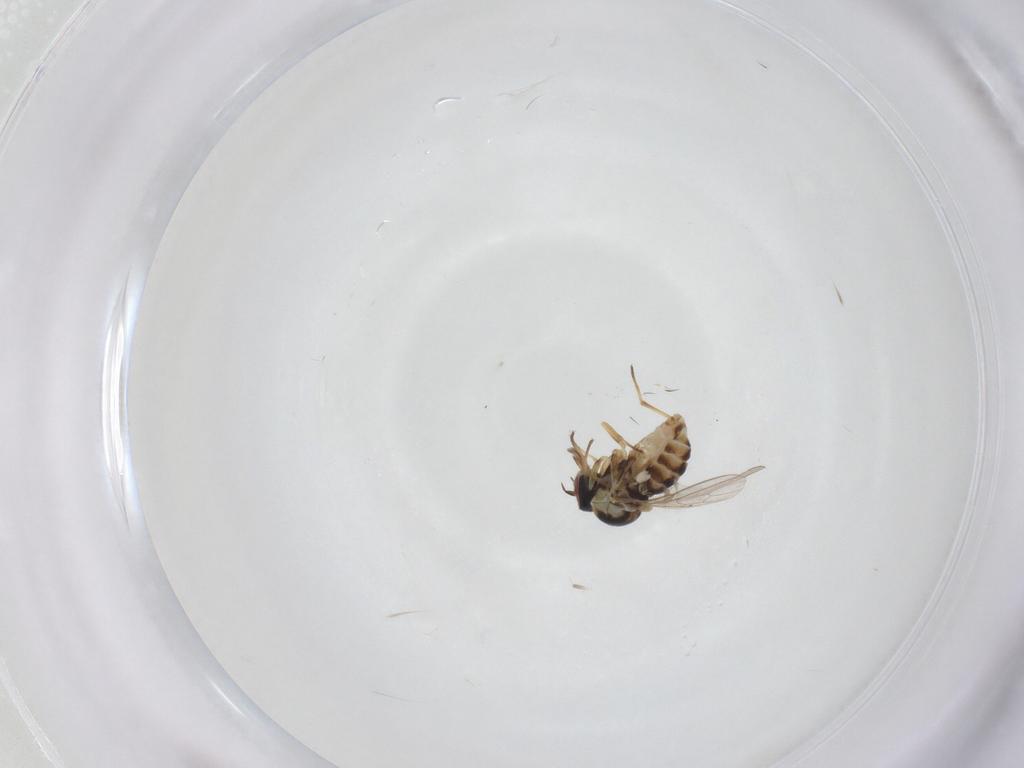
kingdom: Animalia
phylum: Arthropoda
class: Insecta
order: Diptera
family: Bombyliidae
